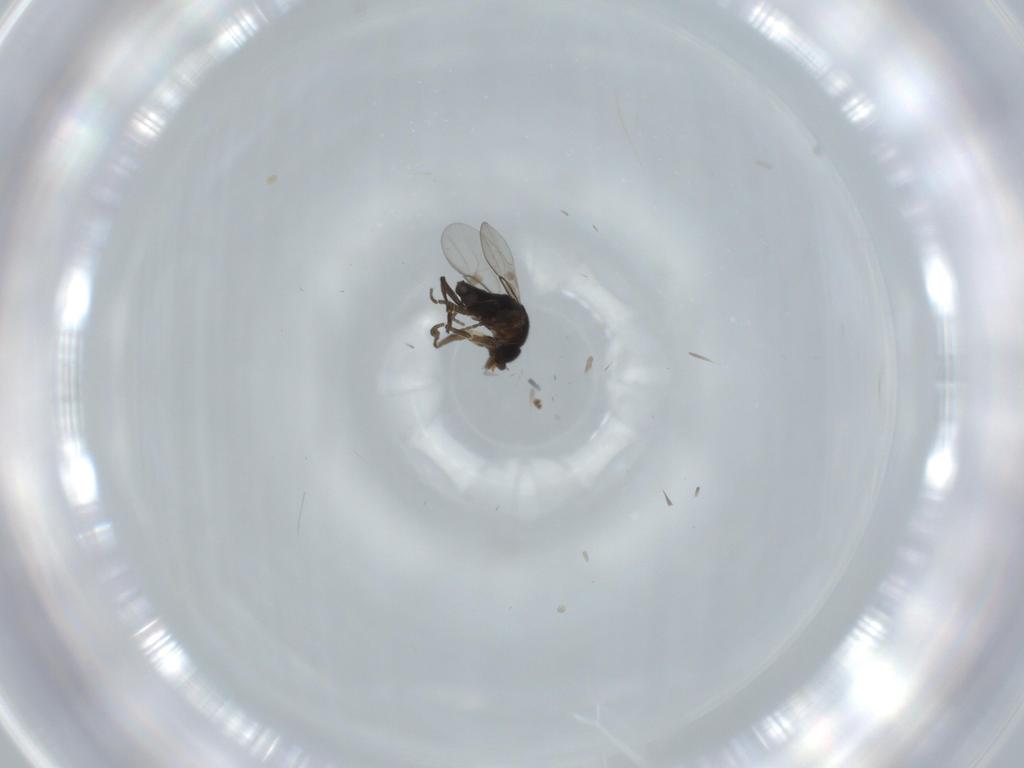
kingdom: Animalia
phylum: Arthropoda
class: Insecta
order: Diptera
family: Phoridae
